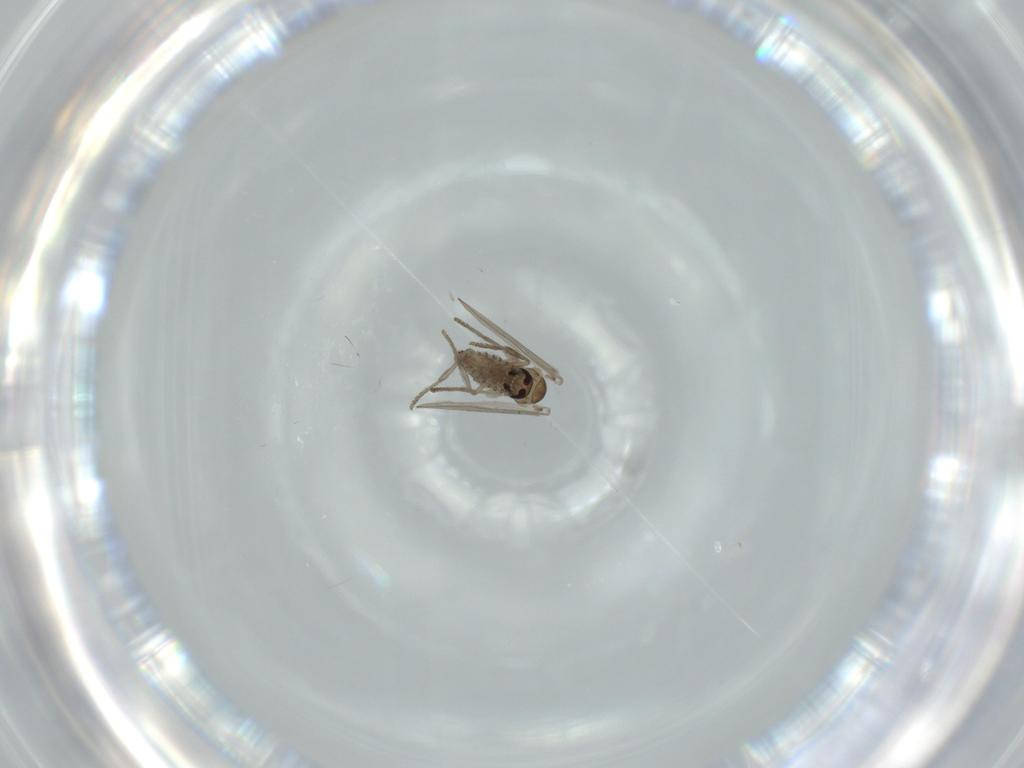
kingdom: Animalia
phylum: Arthropoda
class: Insecta
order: Diptera
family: Psychodidae
